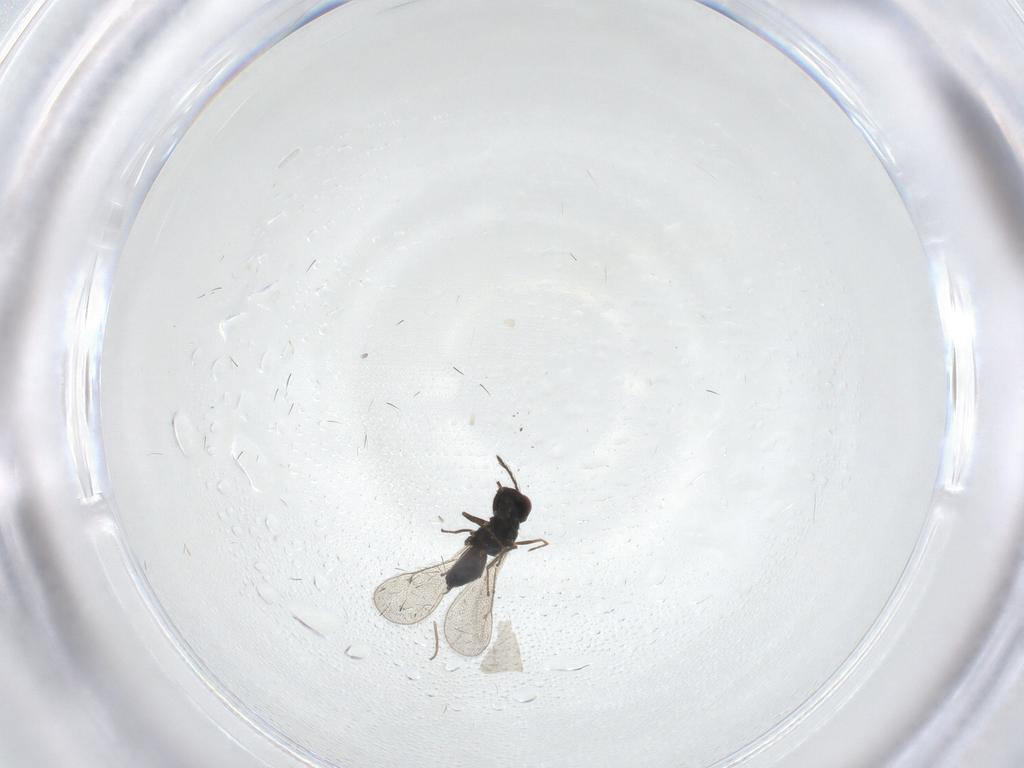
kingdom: Animalia
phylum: Arthropoda
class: Insecta
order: Hymenoptera
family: Eulophidae
